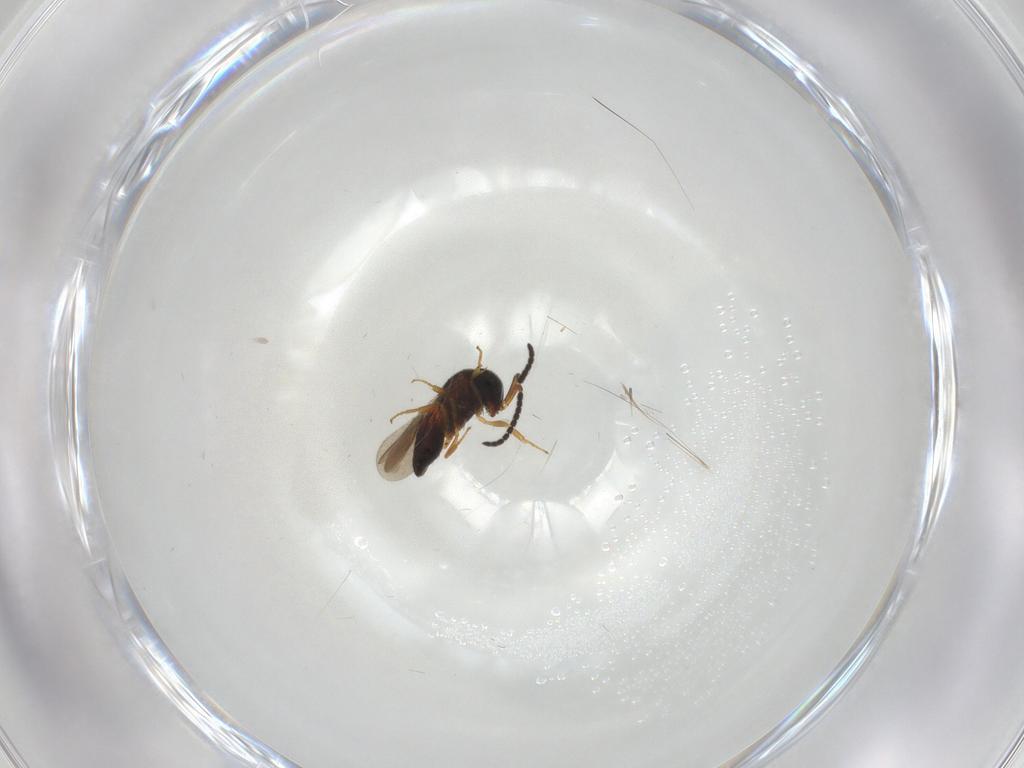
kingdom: Animalia
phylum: Arthropoda
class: Insecta
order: Hymenoptera
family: Scelionidae
